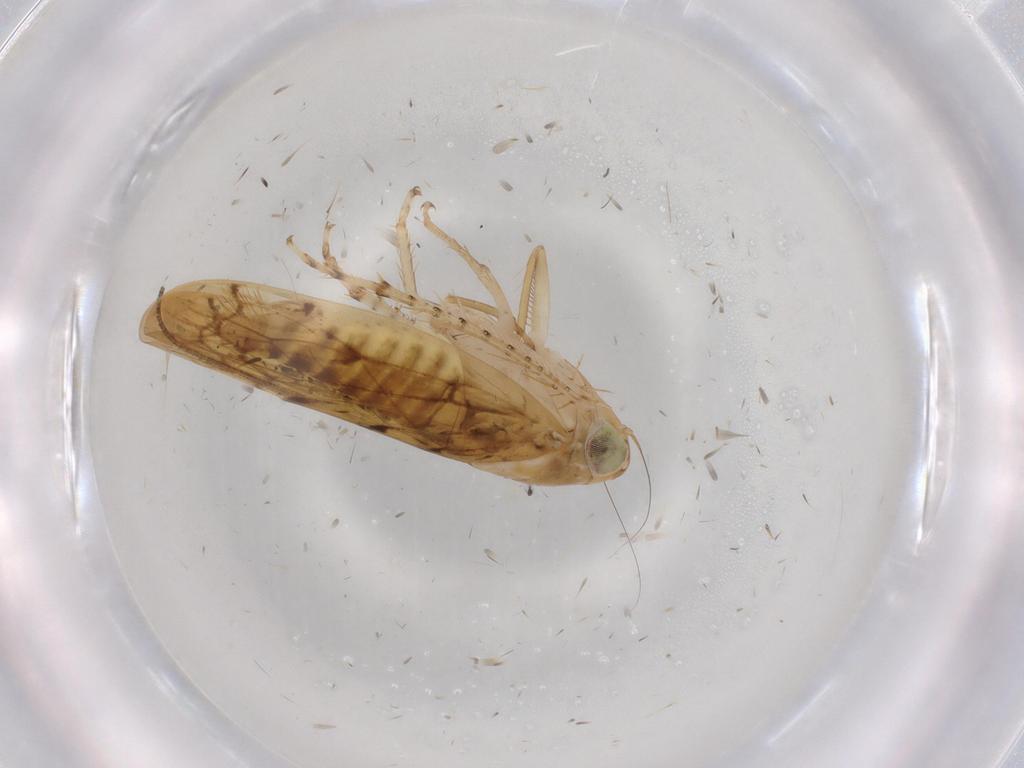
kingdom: Animalia
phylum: Arthropoda
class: Insecta
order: Hemiptera
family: Cicadellidae
